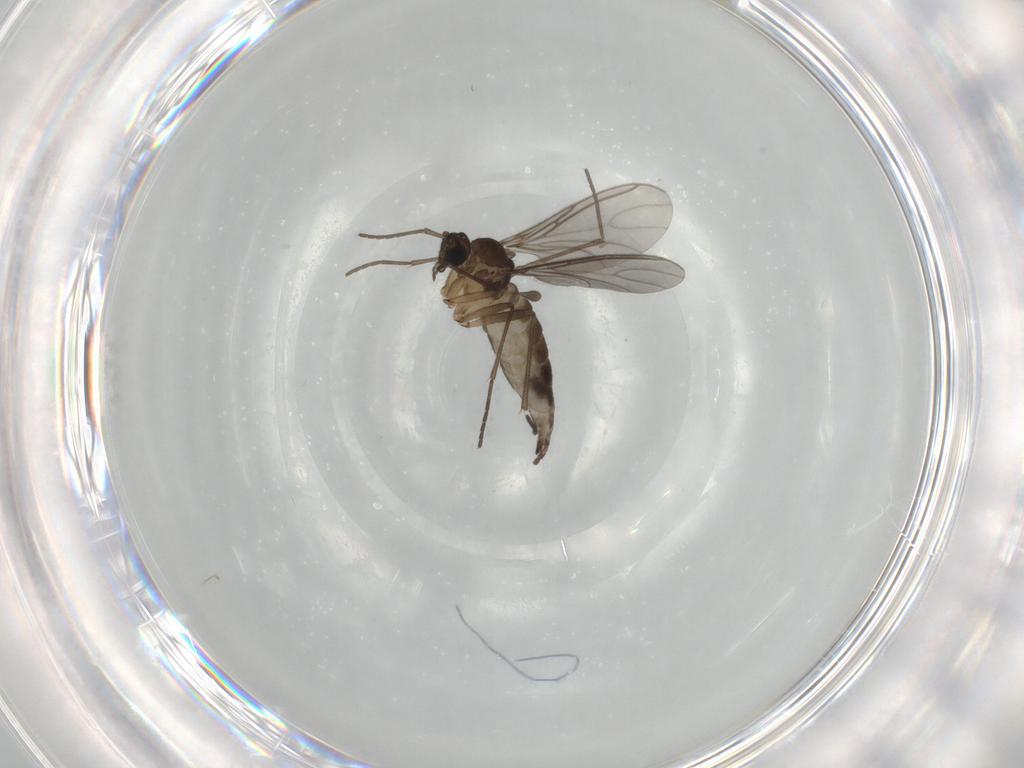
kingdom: Animalia
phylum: Arthropoda
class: Insecta
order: Diptera
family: Sciaridae
